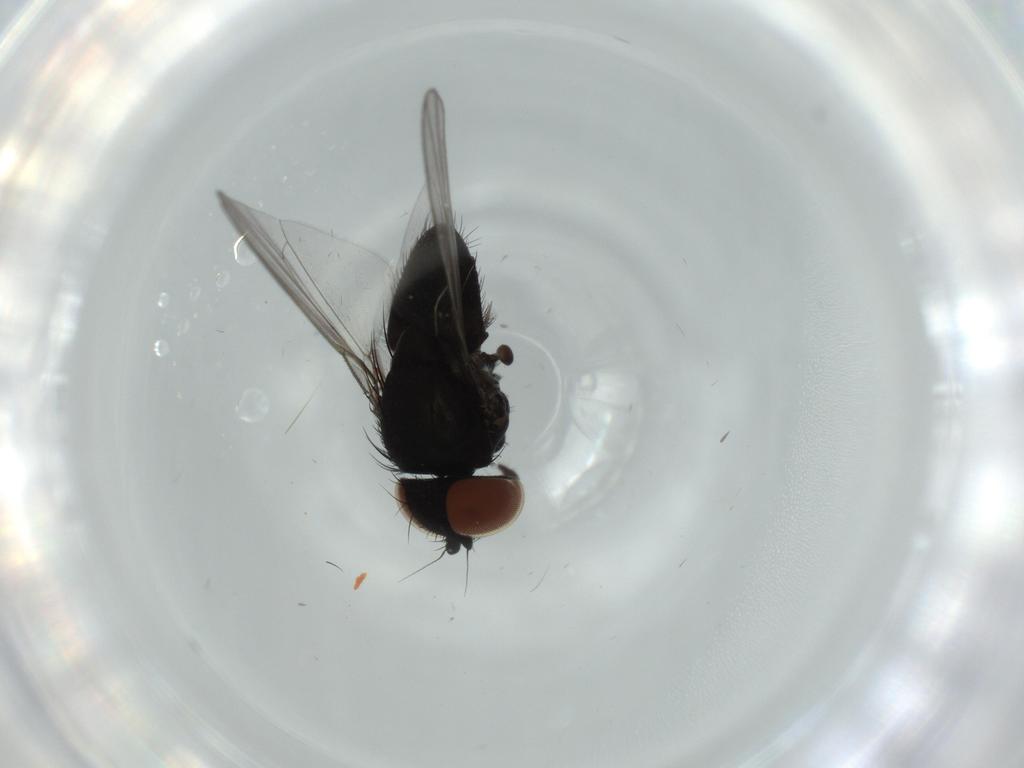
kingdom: Animalia
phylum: Arthropoda
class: Insecta
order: Diptera
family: Milichiidae
